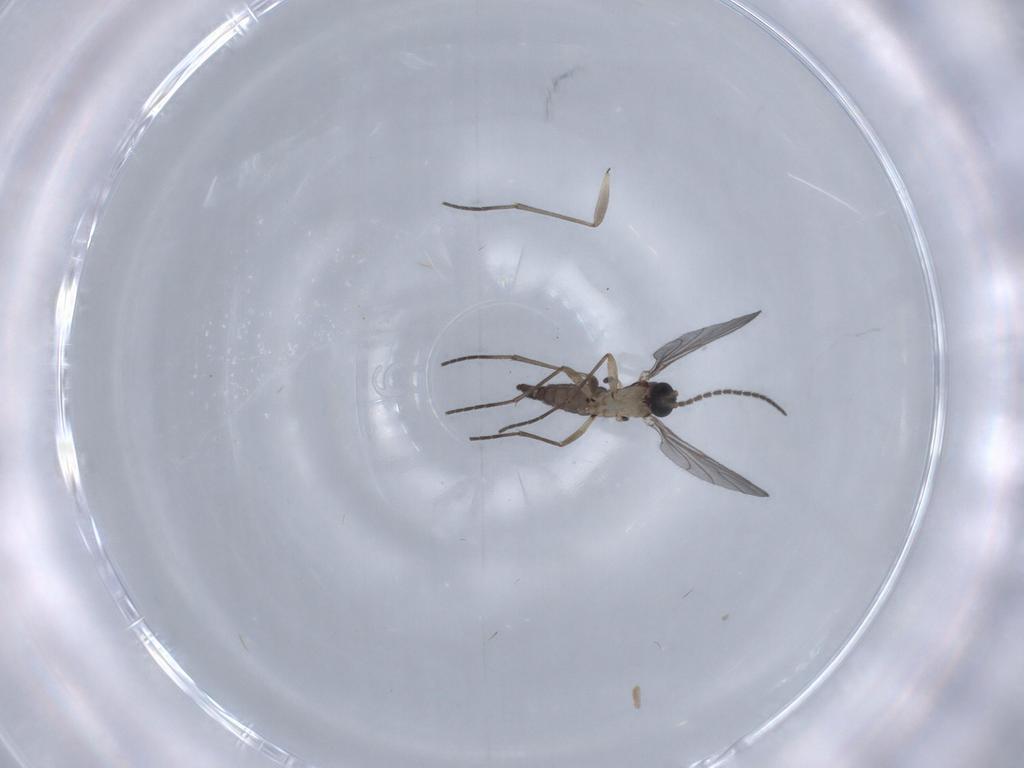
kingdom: Animalia
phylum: Arthropoda
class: Insecta
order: Diptera
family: Sciaridae
